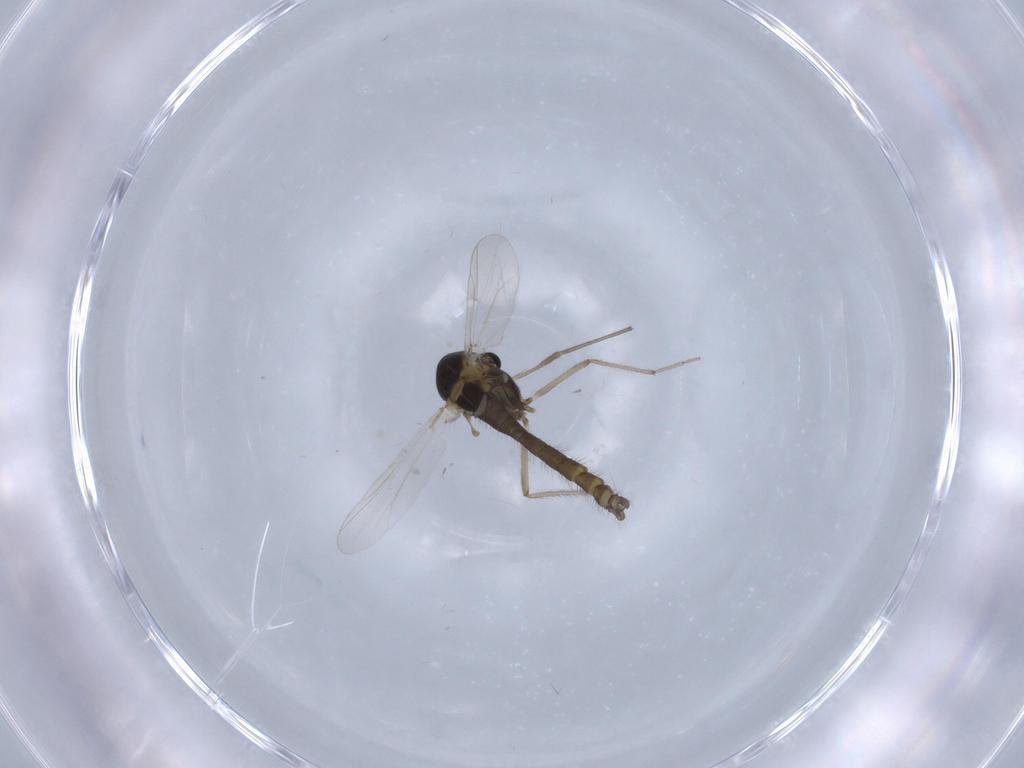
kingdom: Animalia
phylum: Arthropoda
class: Insecta
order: Diptera
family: Chironomidae
